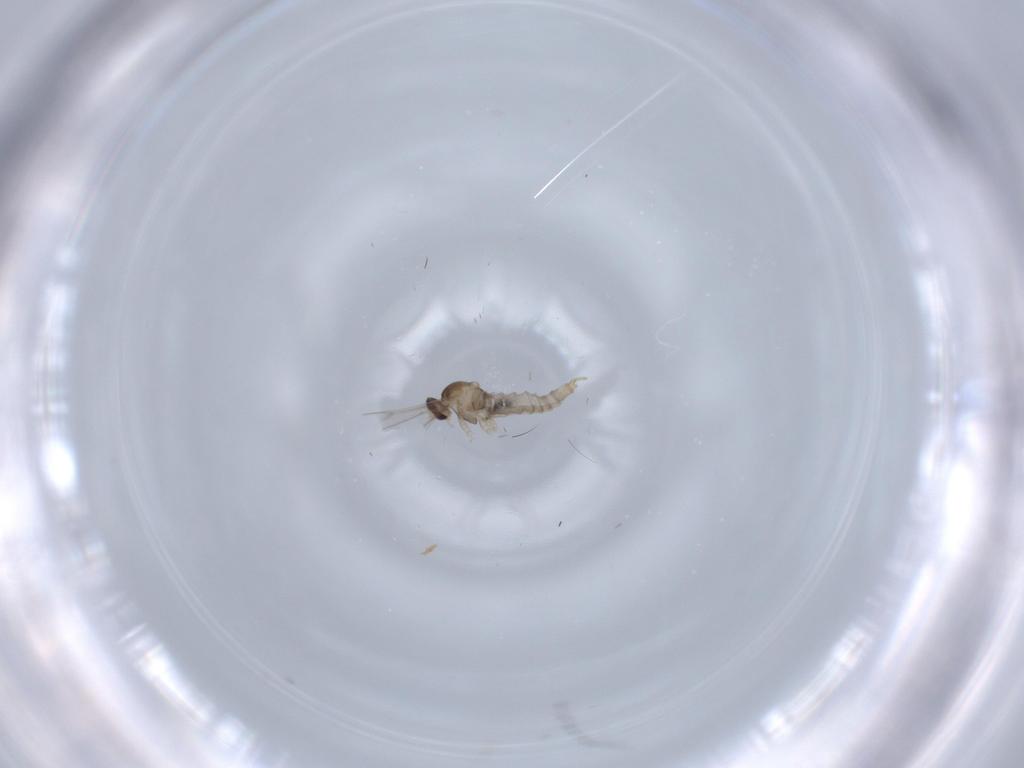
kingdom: Animalia
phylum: Arthropoda
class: Insecta
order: Diptera
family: Cecidomyiidae
